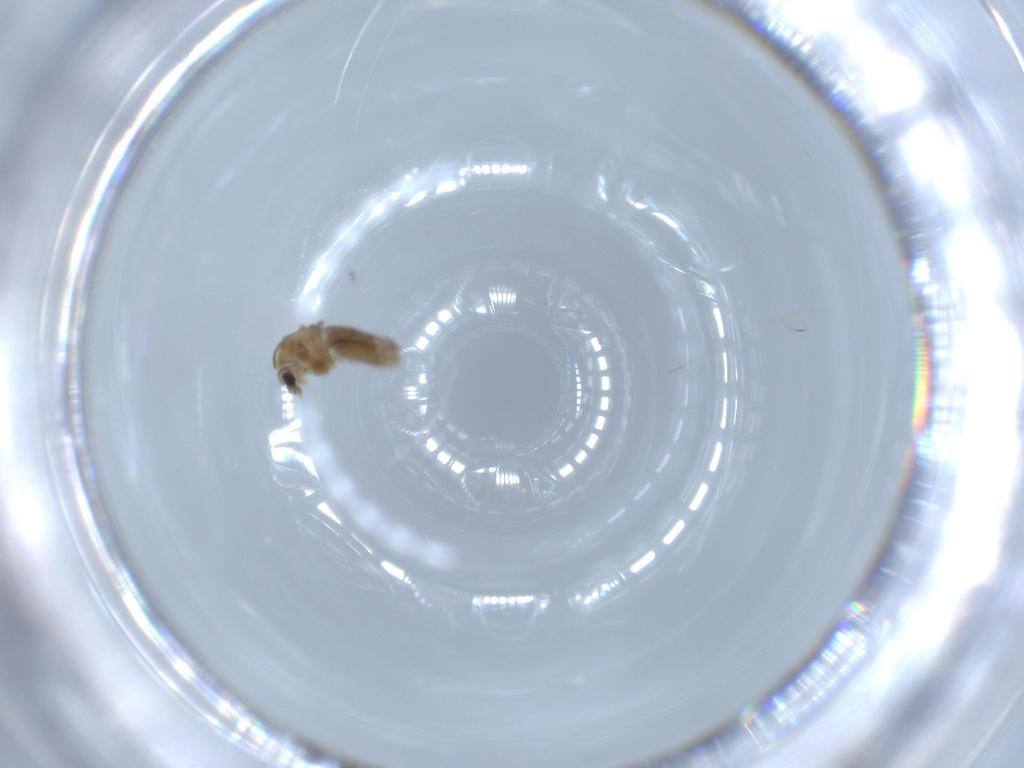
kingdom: Animalia
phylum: Arthropoda
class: Insecta
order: Diptera
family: Chironomidae
